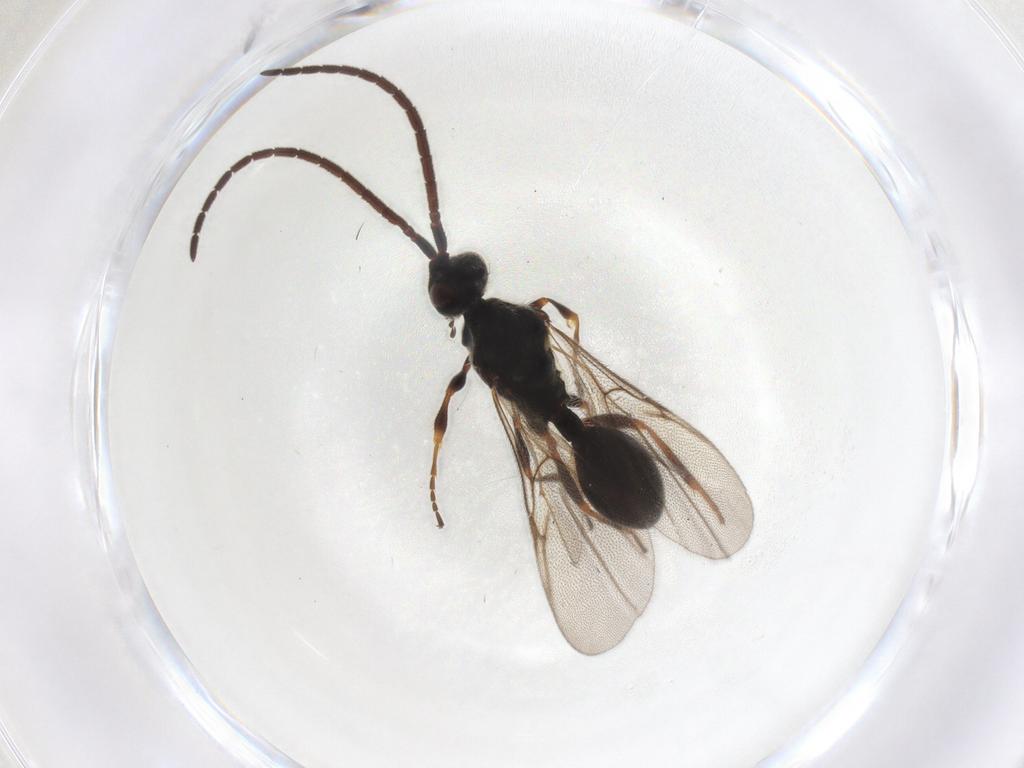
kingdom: Animalia
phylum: Arthropoda
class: Insecta
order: Hymenoptera
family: Diapriidae
